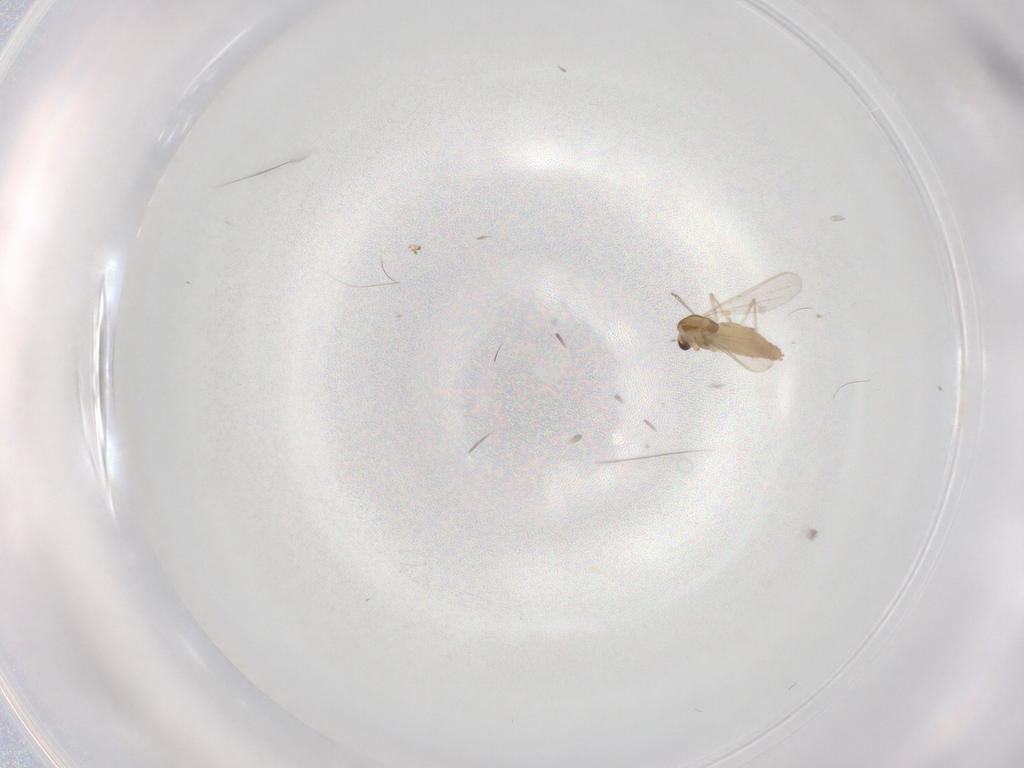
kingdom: Animalia
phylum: Arthropoda
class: Insecta
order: Diptera
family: Chironomidae
